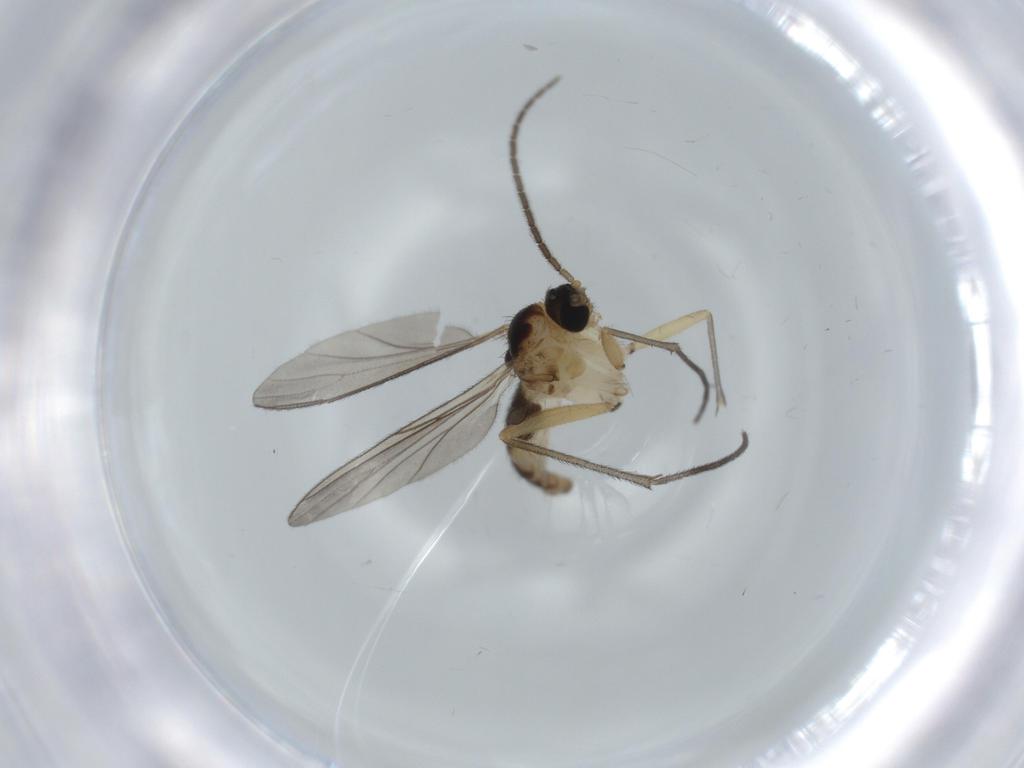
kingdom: Animalia
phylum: Arthropoda
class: Insecta
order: Diptera
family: Sciaridae
